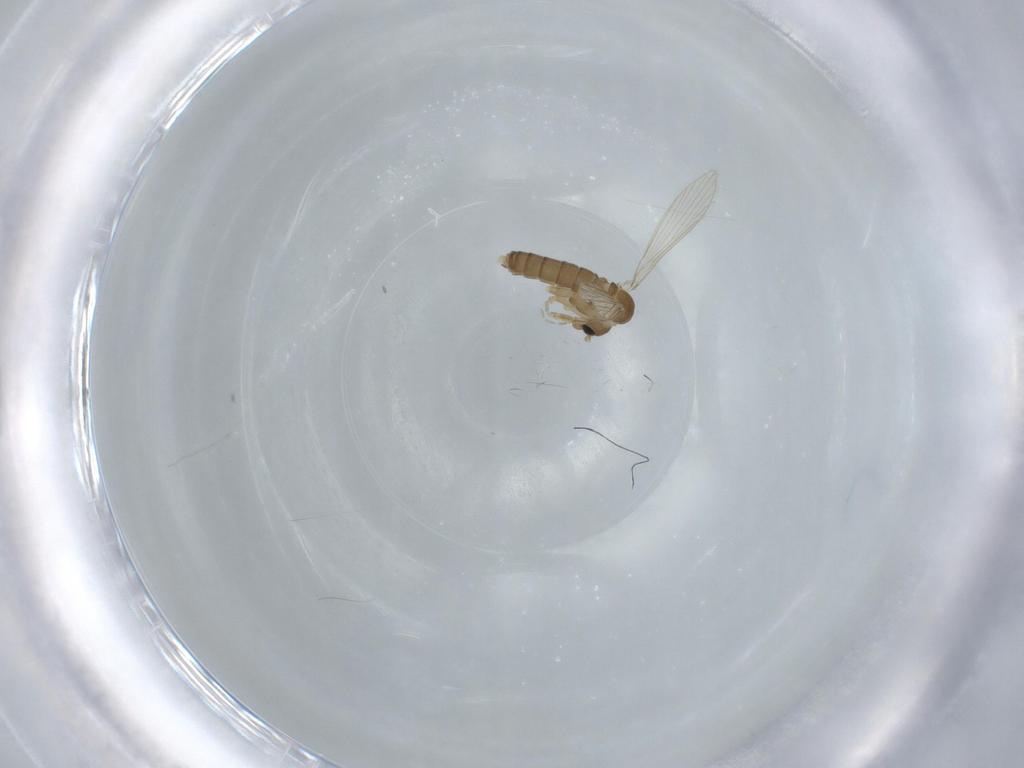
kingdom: Animalia
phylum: Arthropoda
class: Insecta
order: Diptera
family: Psychodidae
